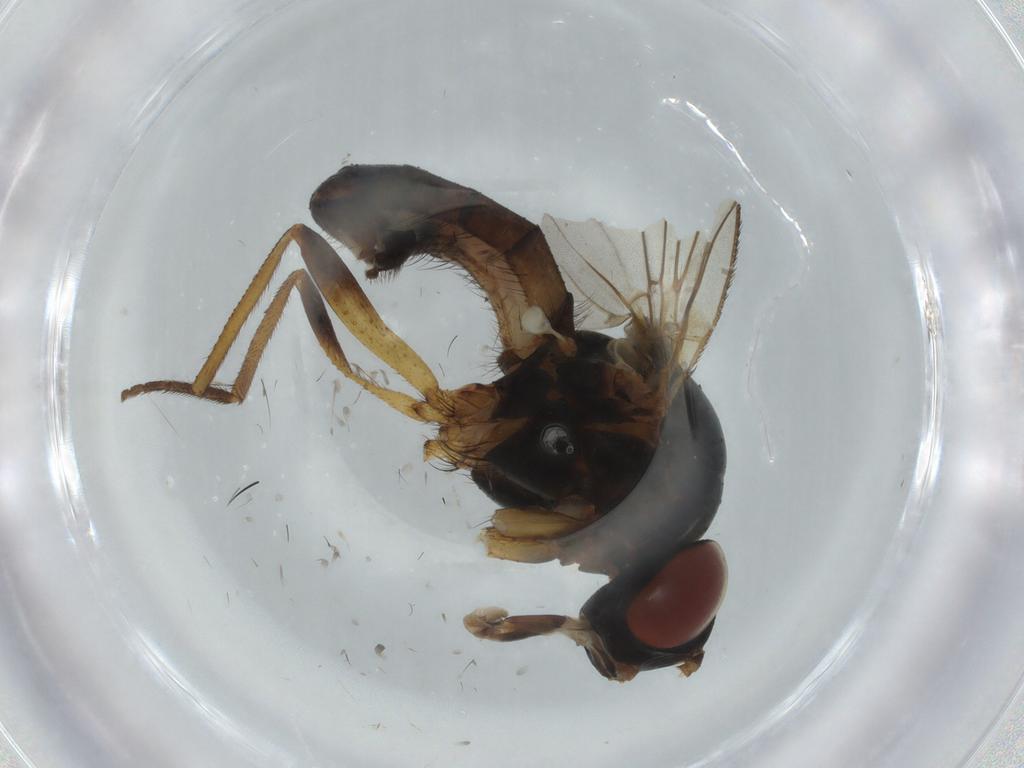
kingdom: Animalia
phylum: Arthropoda
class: Insecta
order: Diptera
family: Anthomyiidae
